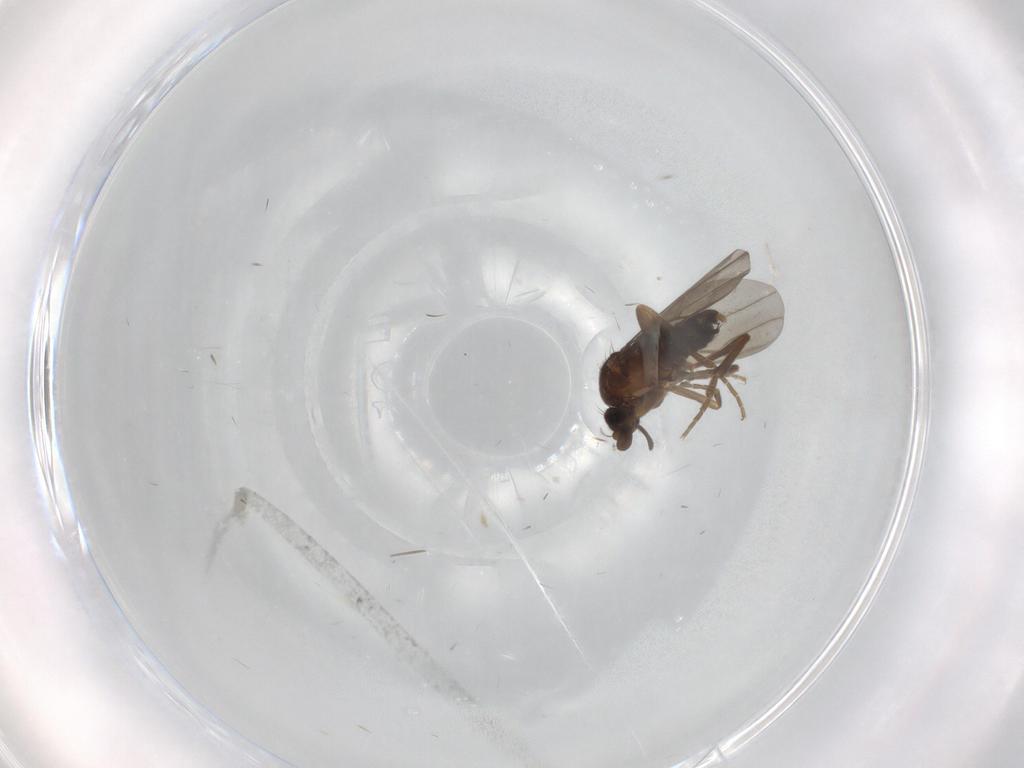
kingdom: Animalia
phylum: Arthropoda
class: Insecta
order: Diptera
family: Phoridae
